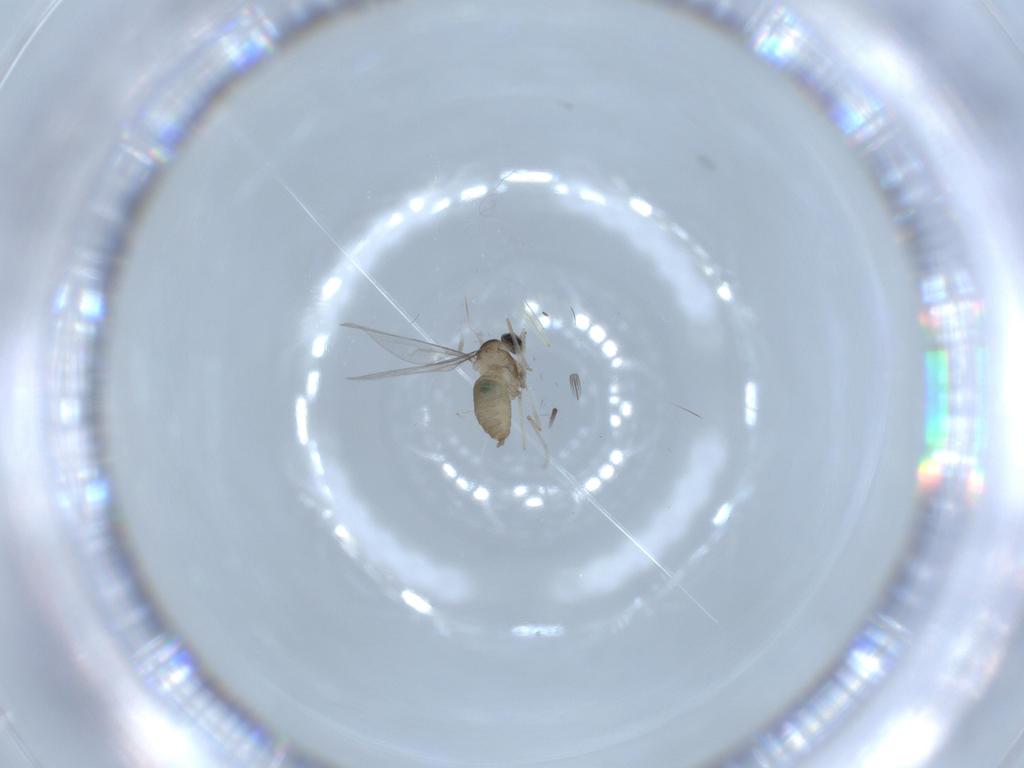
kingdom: Animalia
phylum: Arthropoda
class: Insecta
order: Diptera
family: Cecidomyiidae
